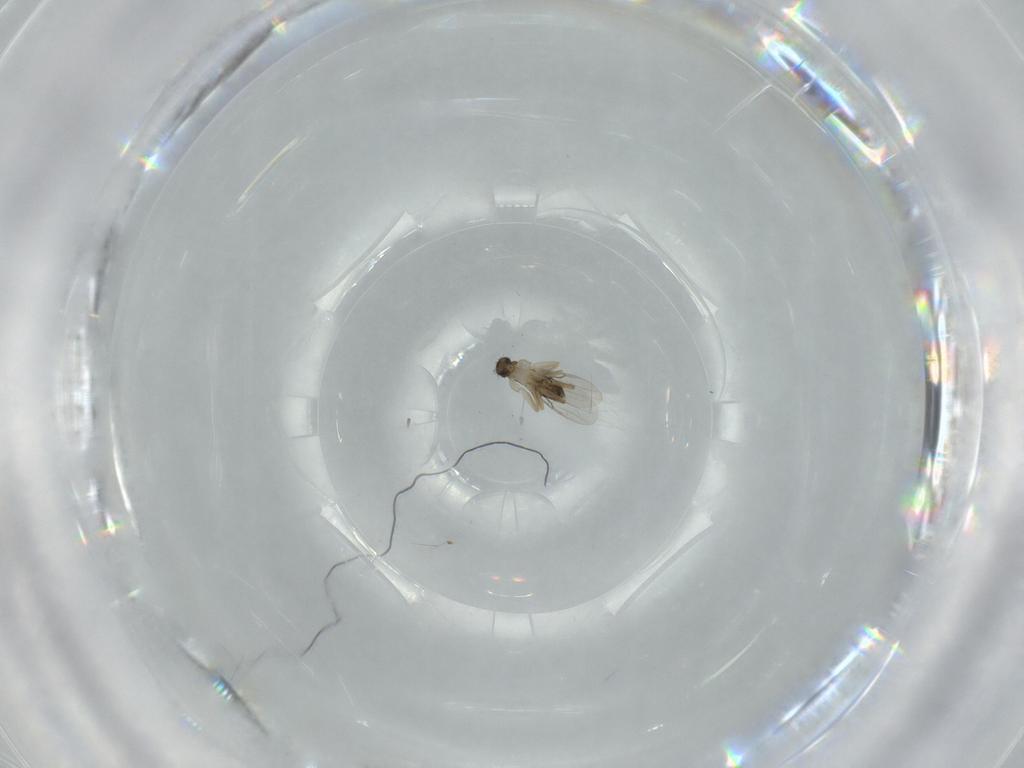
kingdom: Animalia
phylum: Arthropoda
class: Insecta
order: Diptera
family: Phoridae
